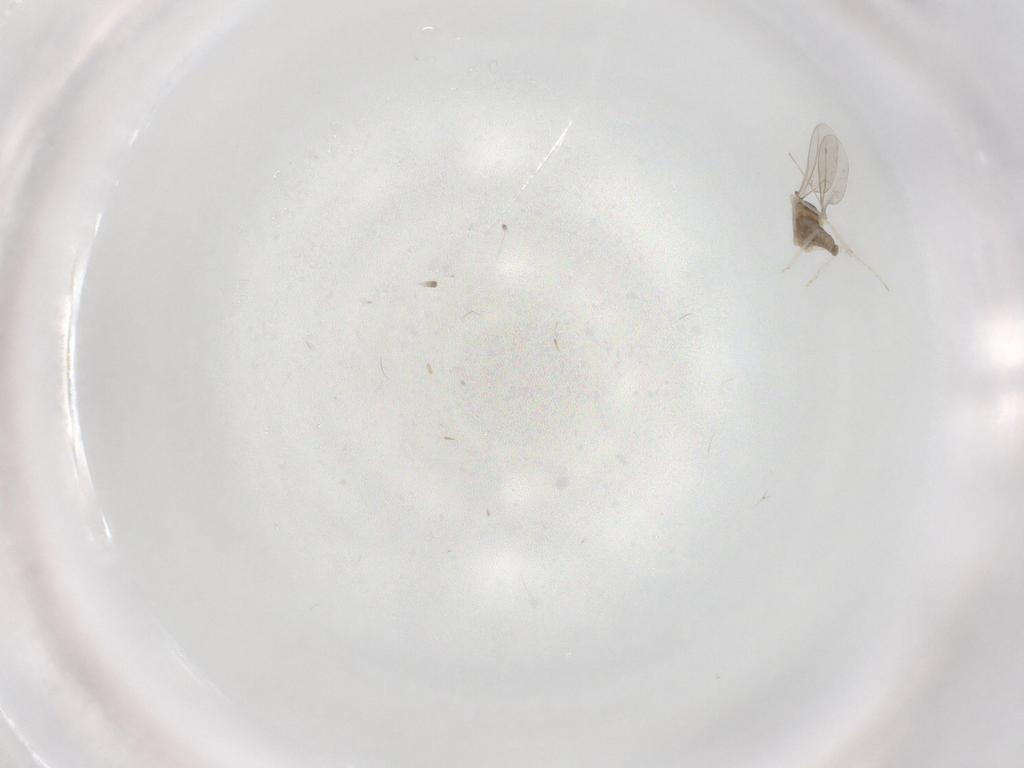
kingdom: Animalia
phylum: Arthropoda
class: Insecta
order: Diptera
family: Cecidomyiidae
